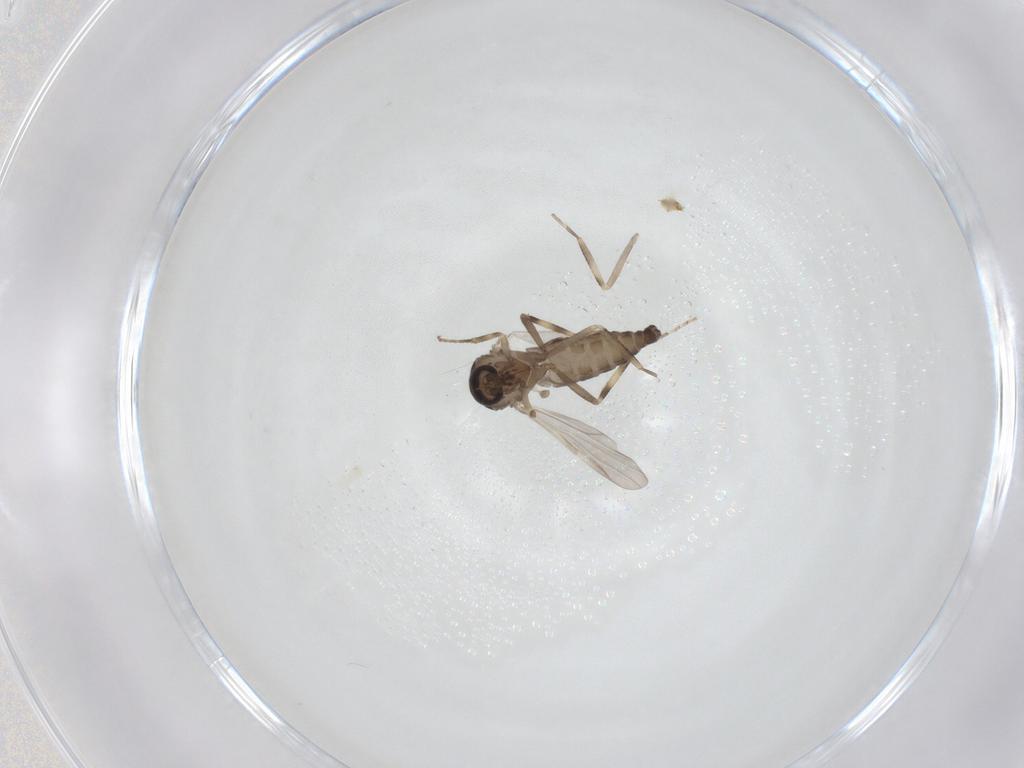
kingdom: Animalia
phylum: Arthropoda
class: Insecta
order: Diptera
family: Ceratopogonidae
